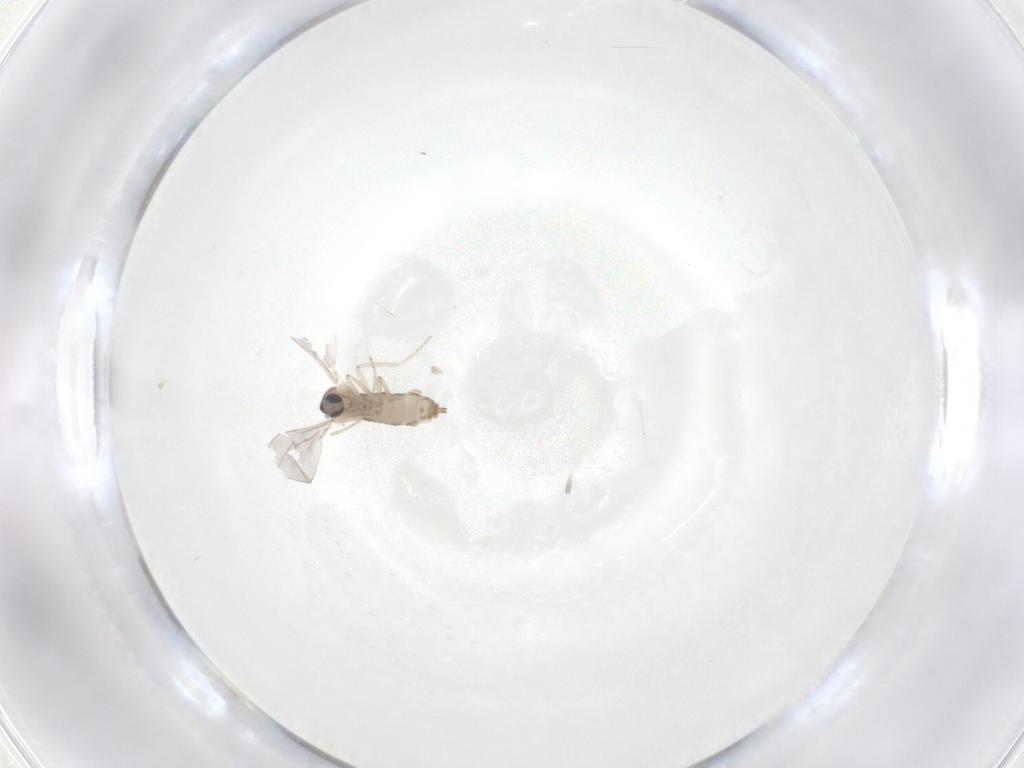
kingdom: Animalia
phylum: Arthropoda
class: Insecta
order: Diptera
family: Cecidomyiidae
